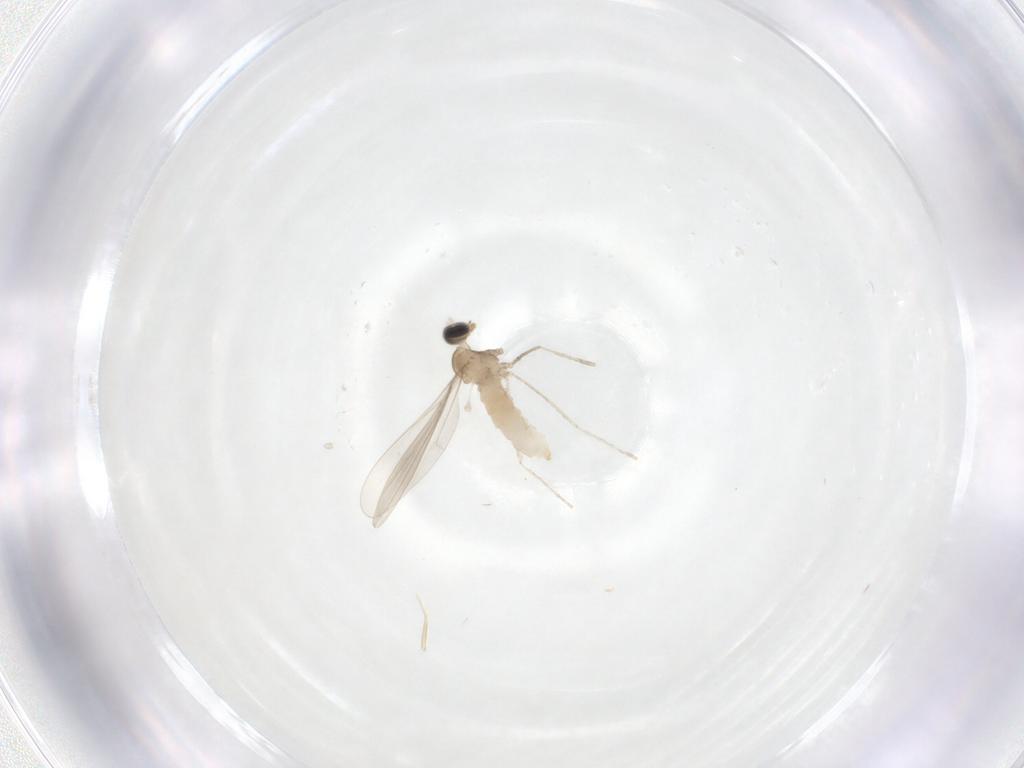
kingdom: Animalia
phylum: Arthropoda
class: Insecta
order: Diptera
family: Cecidomyiidae
